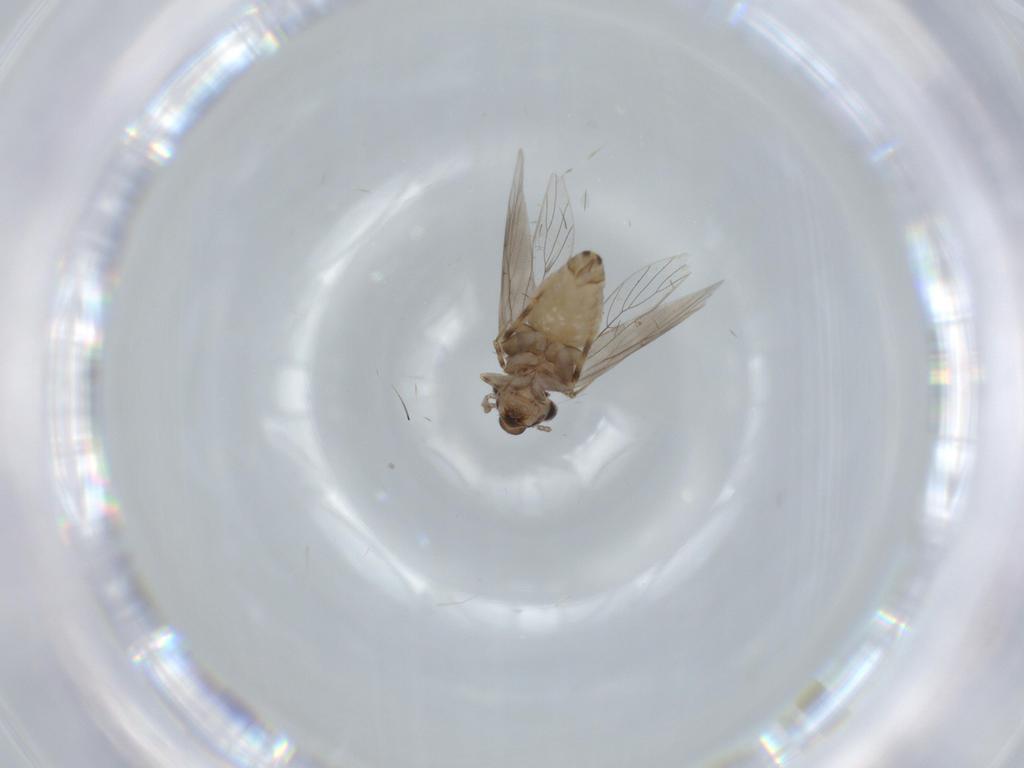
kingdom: Animalia
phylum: Arthropoda
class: Insecta
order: Psocodea
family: Lepidopsocidae
